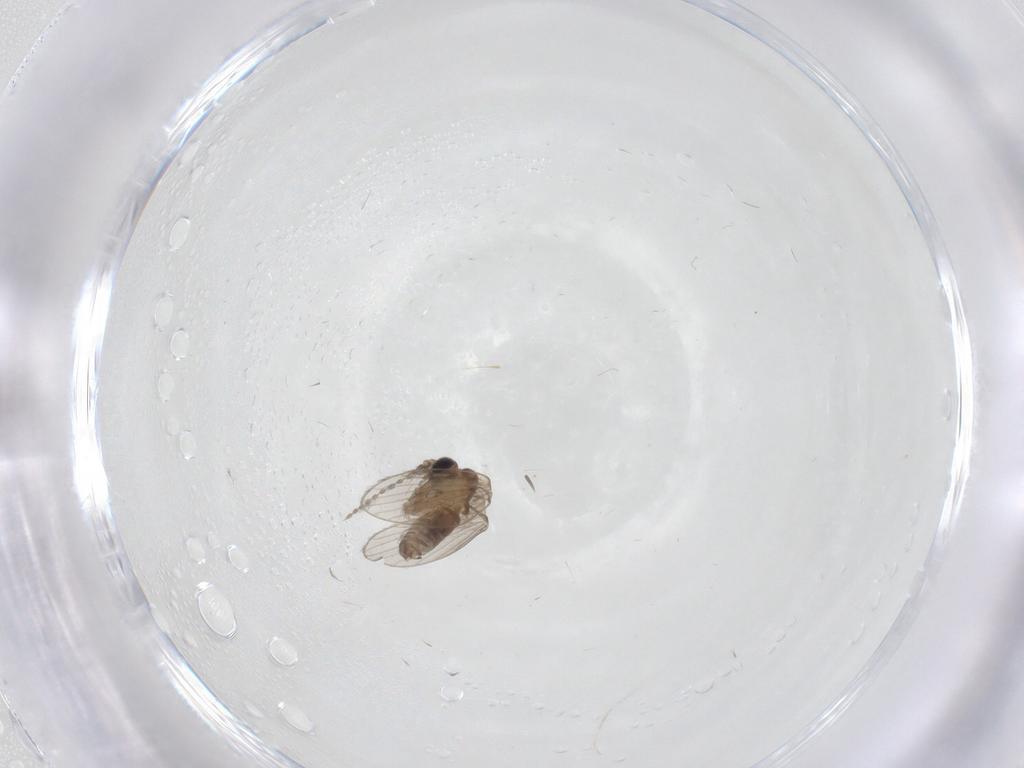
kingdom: Animalia
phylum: Arthropoda
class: Insecta
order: Diptera
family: Psychodidae
